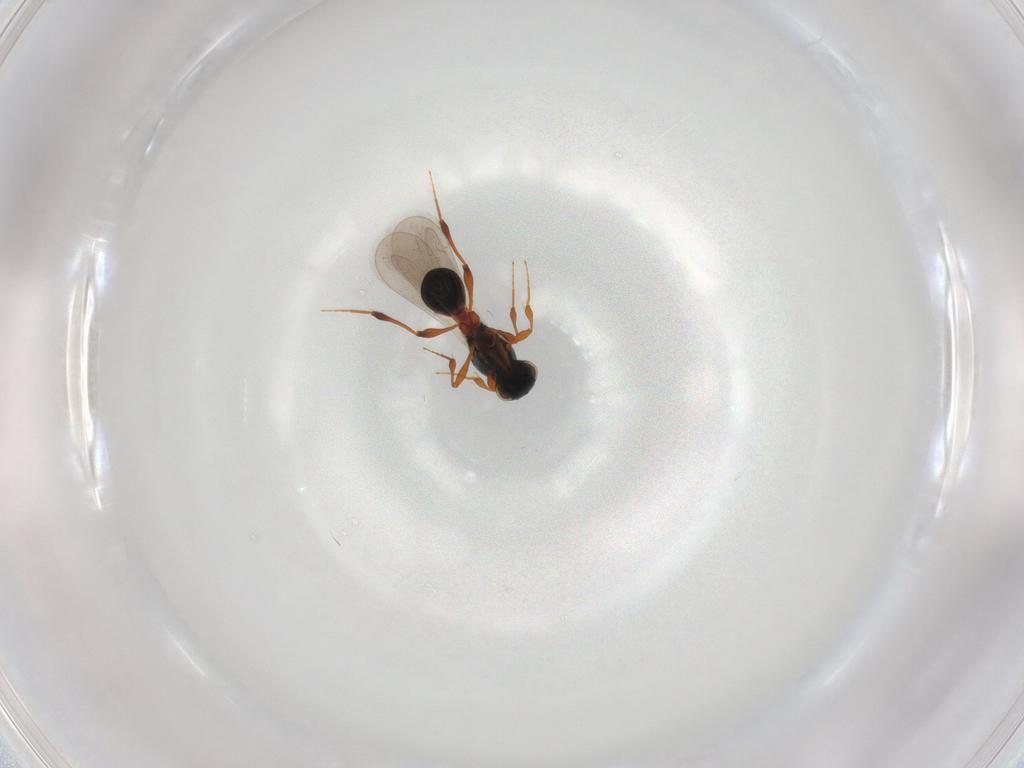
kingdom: Animalia
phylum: Arthropoda
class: Insecta
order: Hymenoptera
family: Platygastridae
